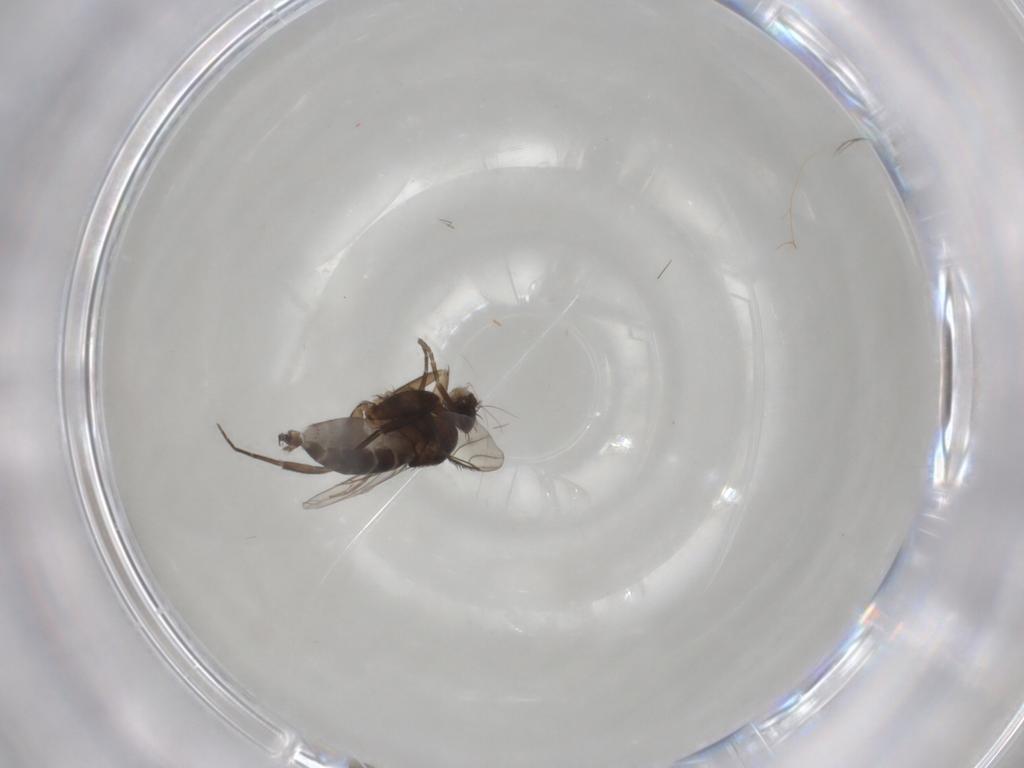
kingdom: Animalia
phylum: Arthropoda
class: Insecta
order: Diptera
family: Phoridae
